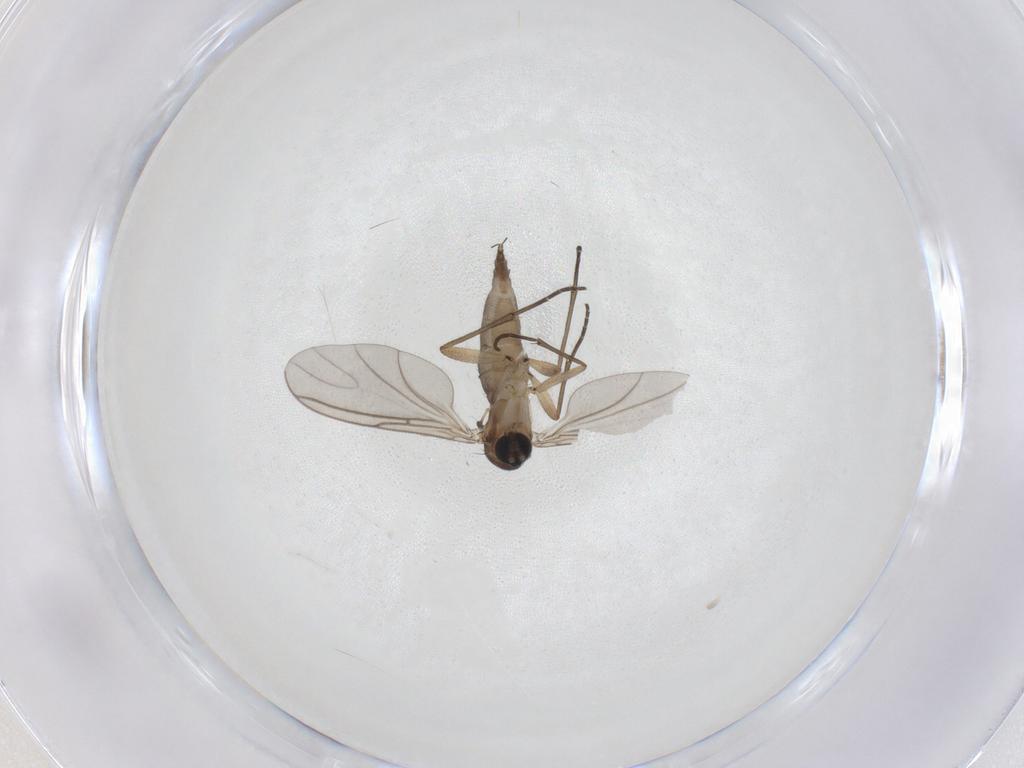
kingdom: Animalia
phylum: Arthropoda
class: Insecta
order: Diptera
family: Sciaridae
